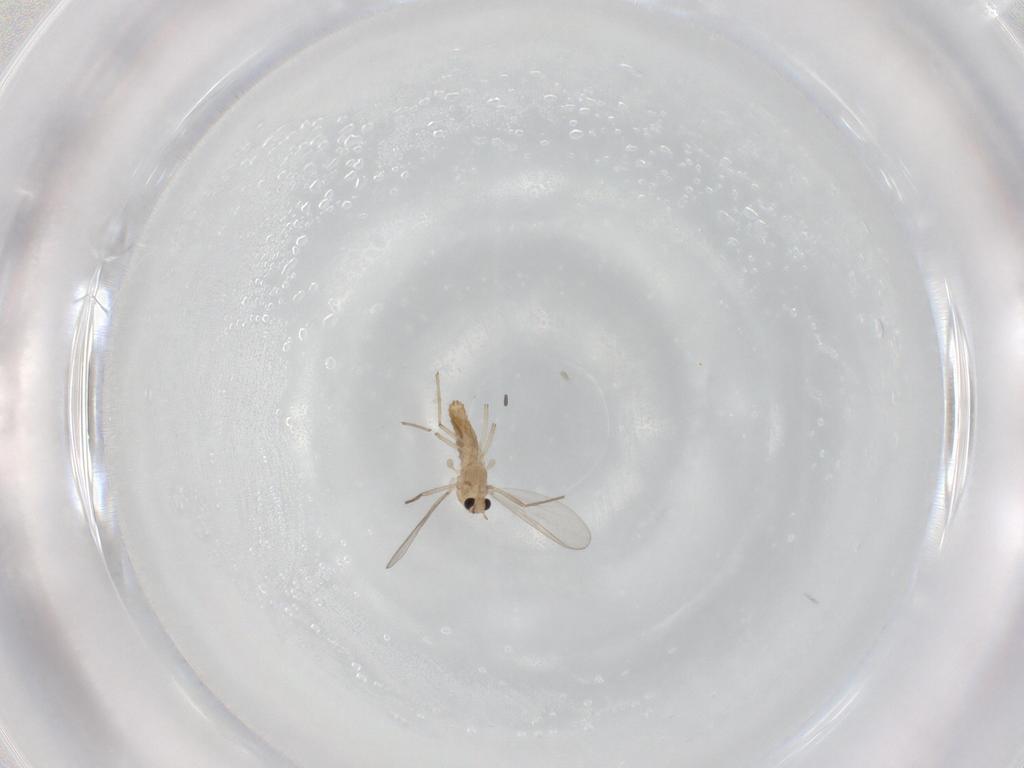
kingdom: Animalia
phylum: Arthropoda
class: Insecta
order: Diptera
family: Chironomidae
